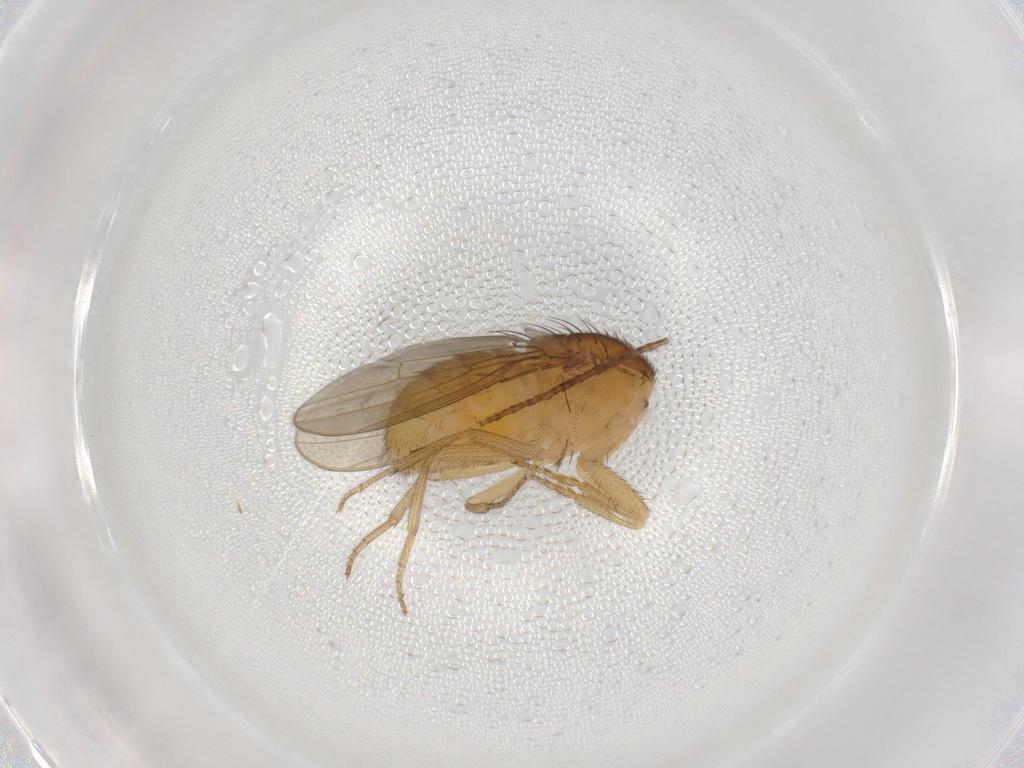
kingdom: Animalia
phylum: Arthropoda
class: Insecta
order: Diptera
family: Drosophilidae
